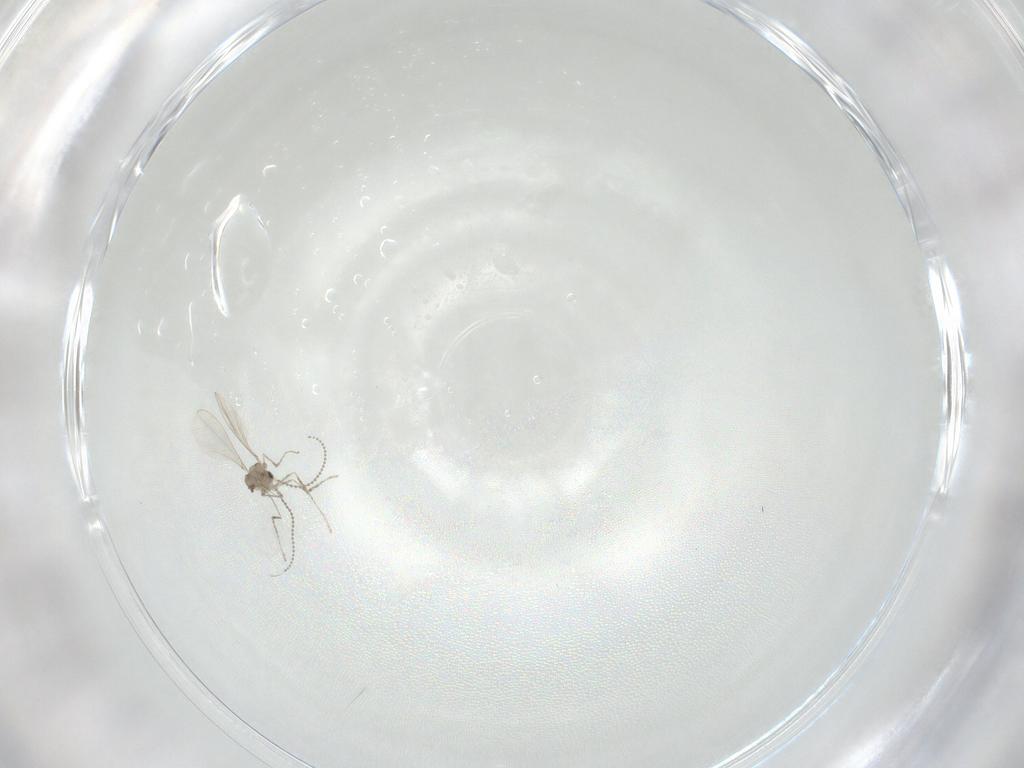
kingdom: Animalia
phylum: Arthropoda
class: Insecta
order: Diptera
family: Cecidomyiidae
